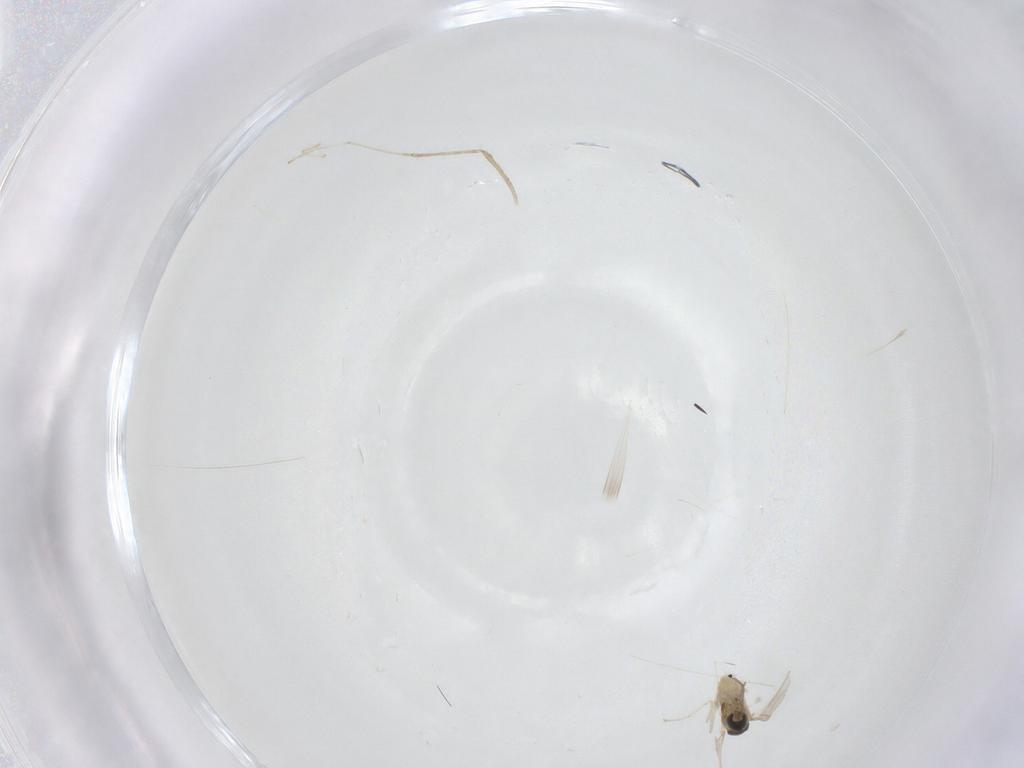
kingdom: Animalia
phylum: Arthropoda
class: Insecta
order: Diptera
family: Cecidomyiidae
